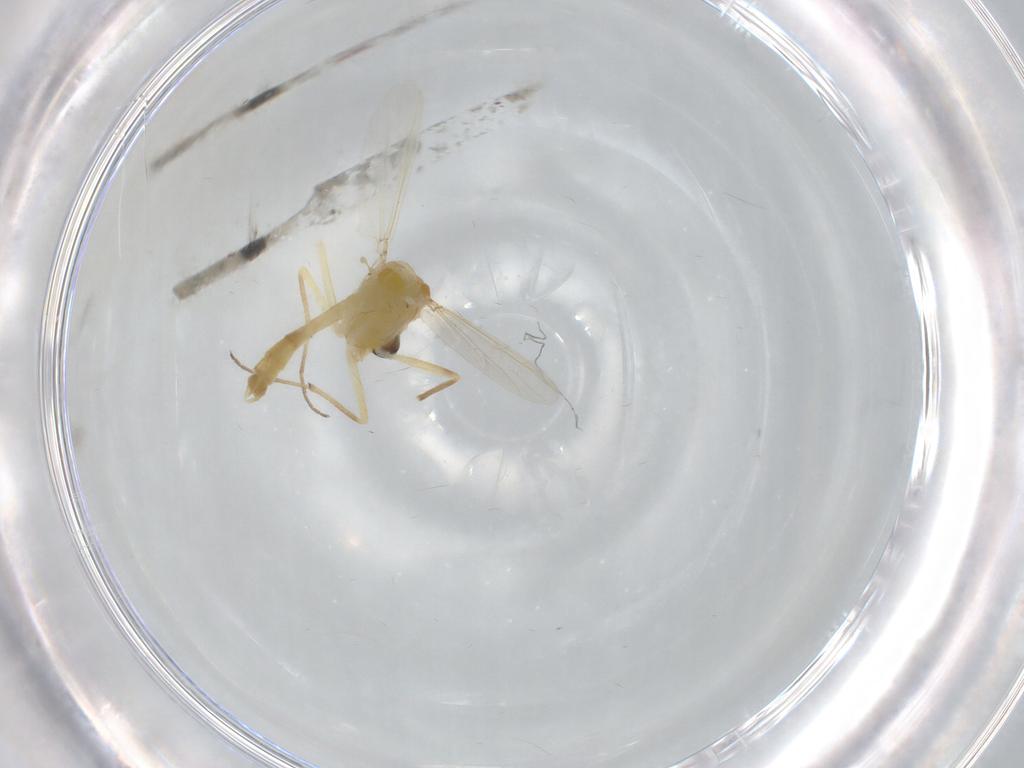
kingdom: Animalia
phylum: Arthropoda
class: Insecta
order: Diptera
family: Chironomidae
